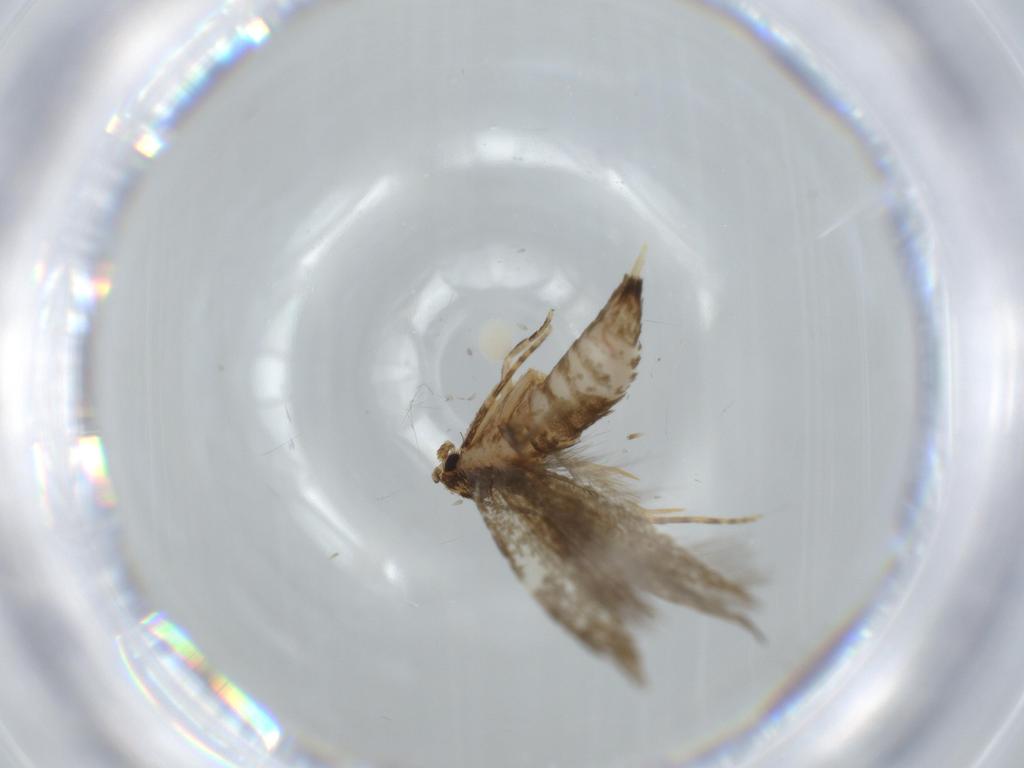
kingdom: Animalia
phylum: Arthropoda
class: Insecta
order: Lepidoptera
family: Tineidae
